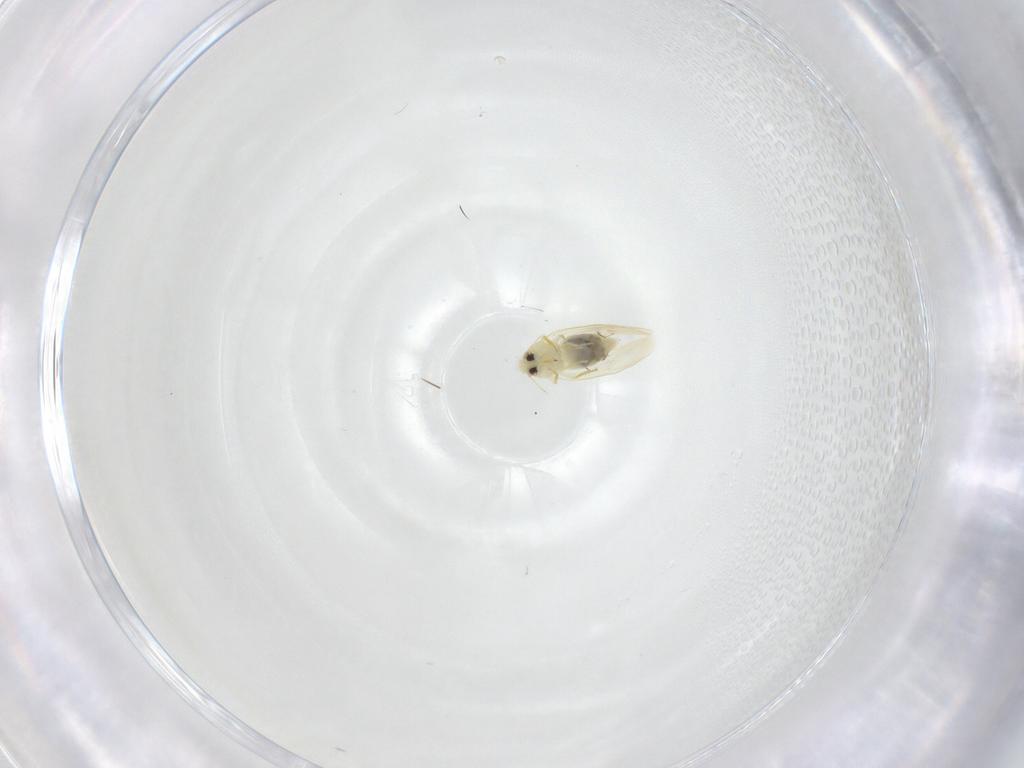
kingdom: Animalia
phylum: Arthropoda
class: Insecta
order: Hemiptera
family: Aleyrodidae
